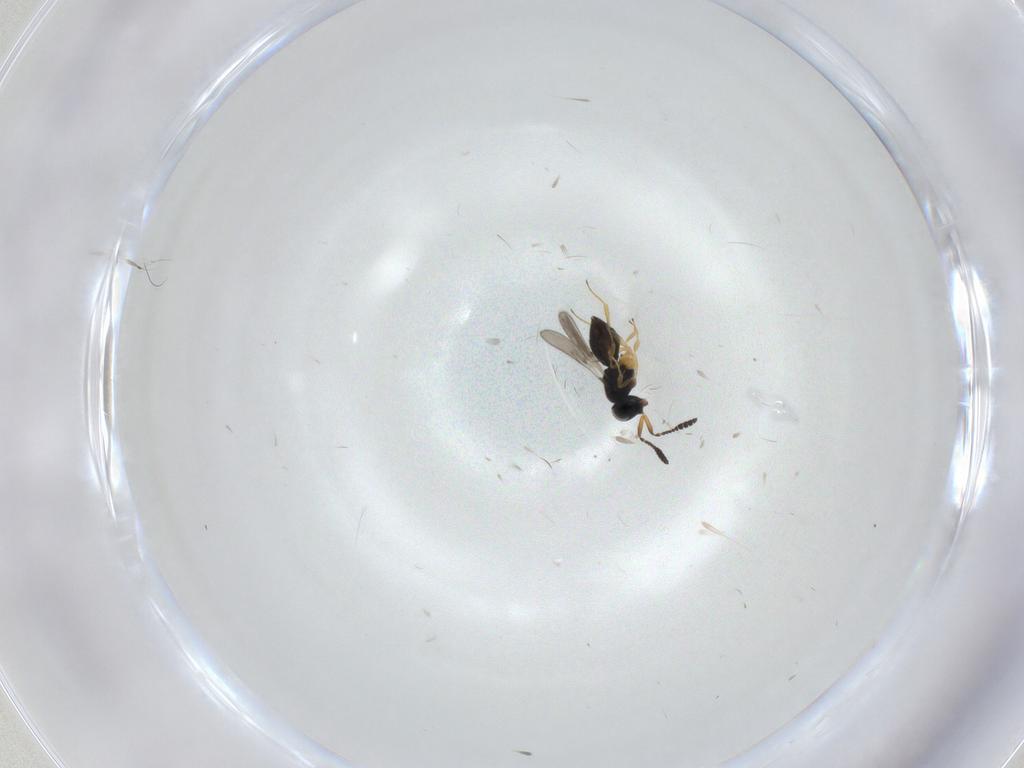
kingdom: Animalia
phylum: Arthropoda
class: Insecta
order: Hymenoptera
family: Scelionidae
